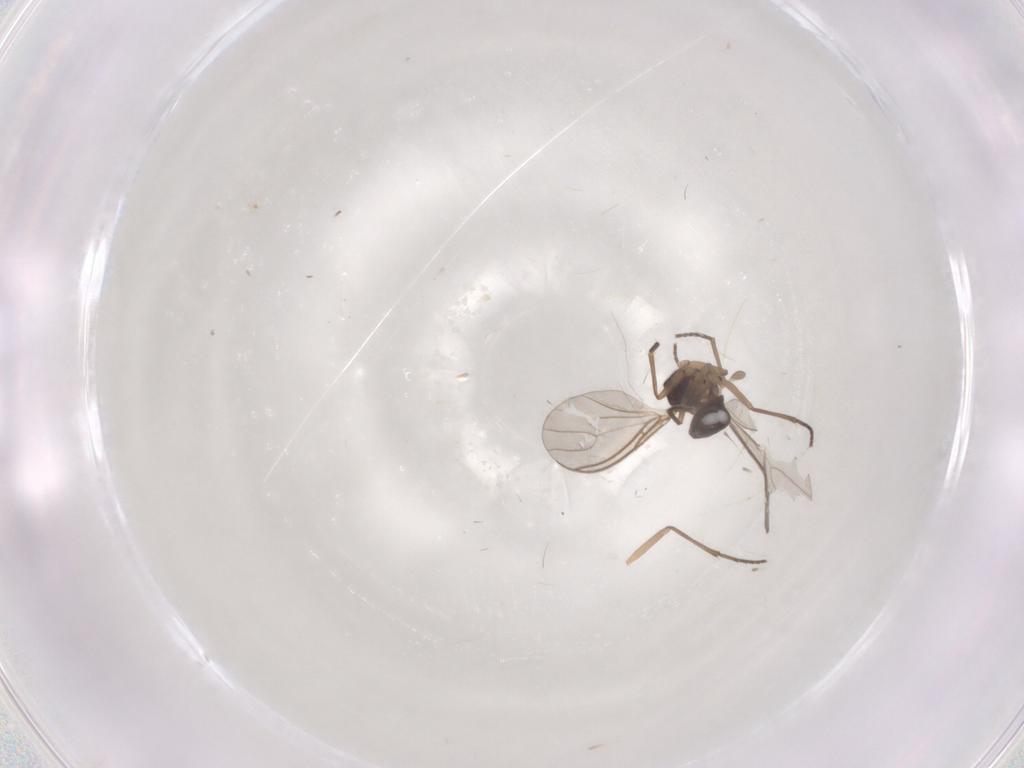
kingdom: Animalia
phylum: Arthropoda
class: Insecta
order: Diptera
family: Sciaridae
